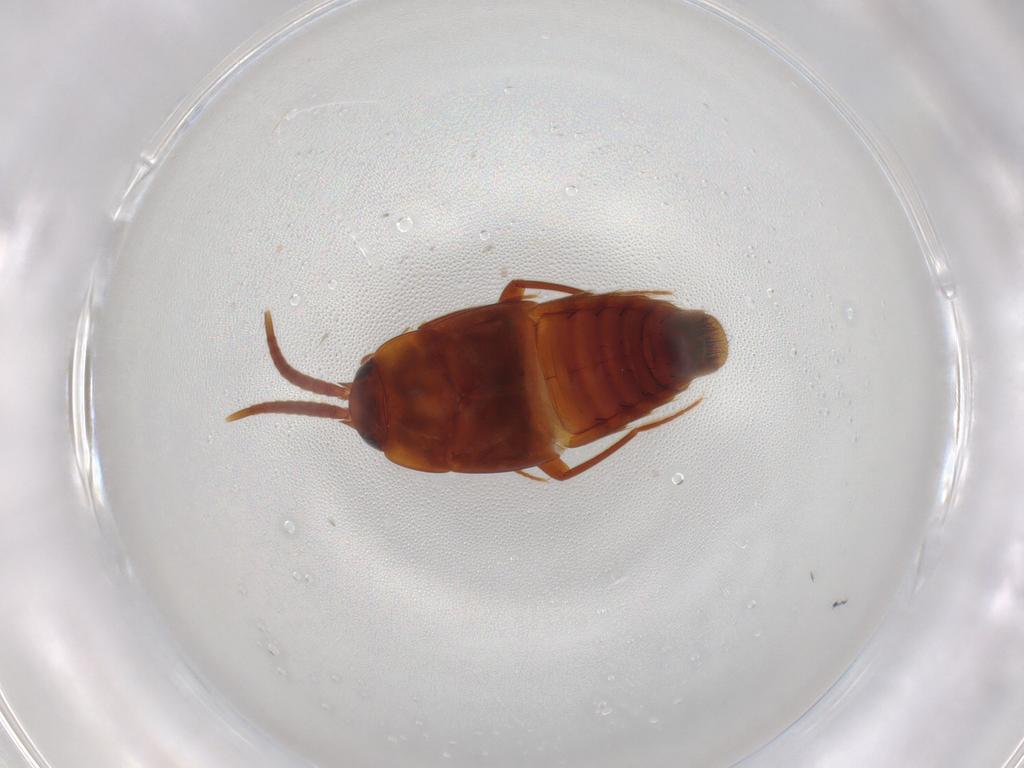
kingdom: Animalia
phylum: Arthropoda
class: Insecta
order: Coleoptera
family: Staphylinidae
